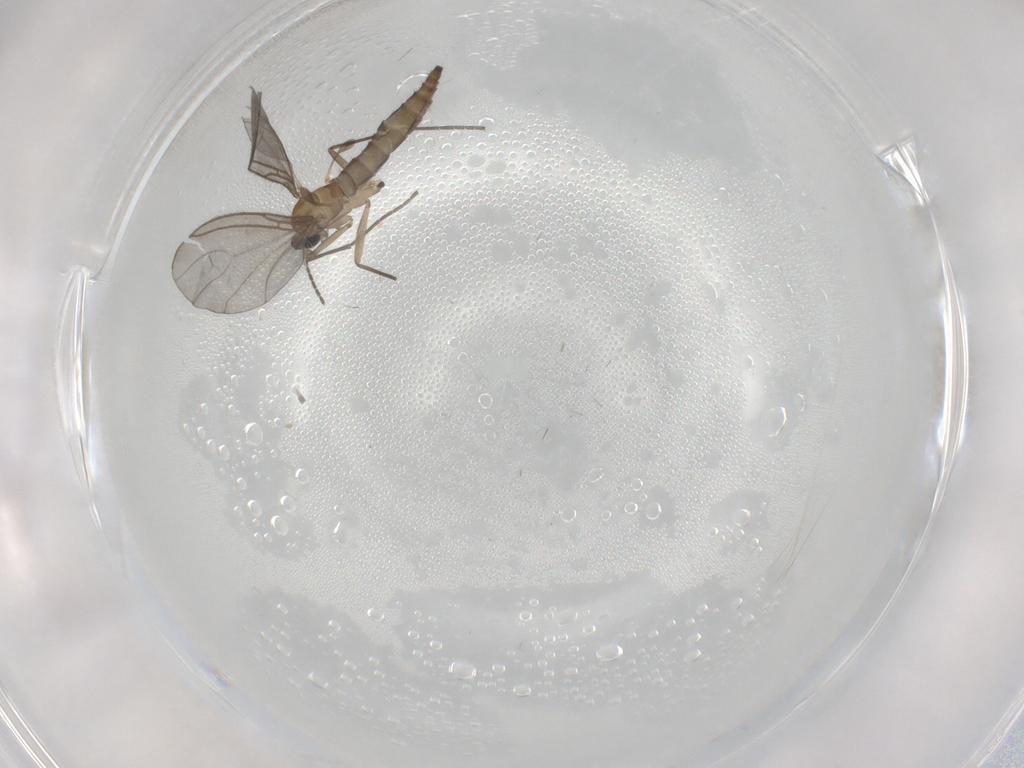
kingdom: Animalia
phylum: Arthropoda
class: Insecta
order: Diptera
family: Sciaridae
